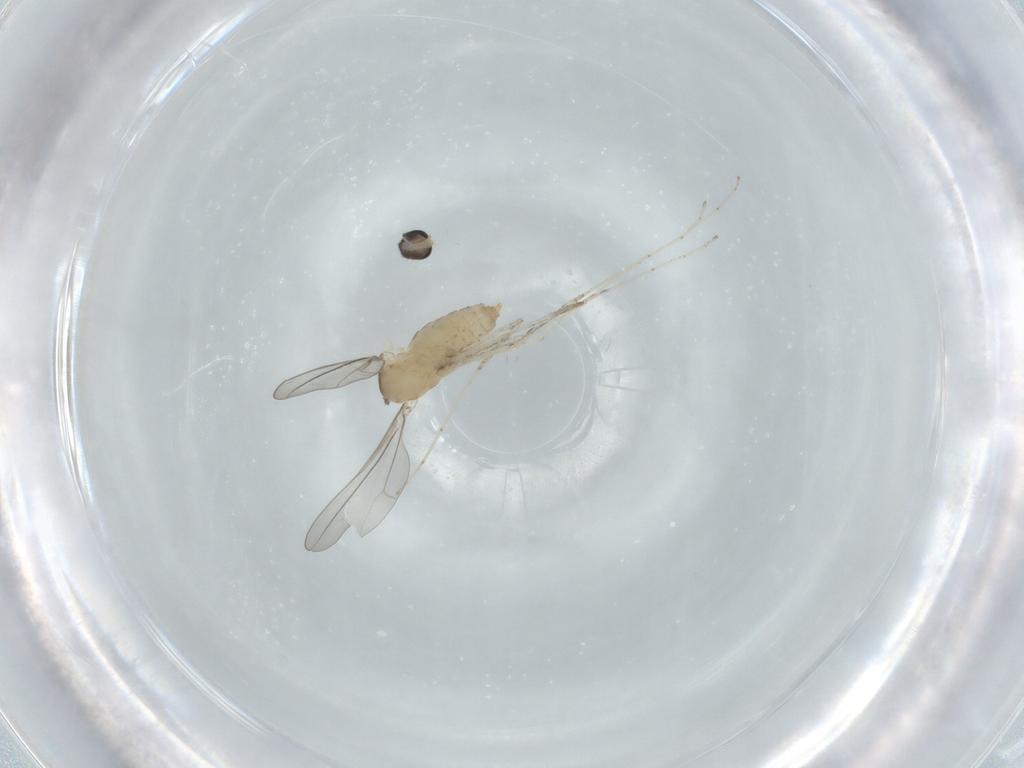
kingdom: Animalia
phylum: Arthropoda
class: Insecta
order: Diptera
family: Cecidomyiidae
